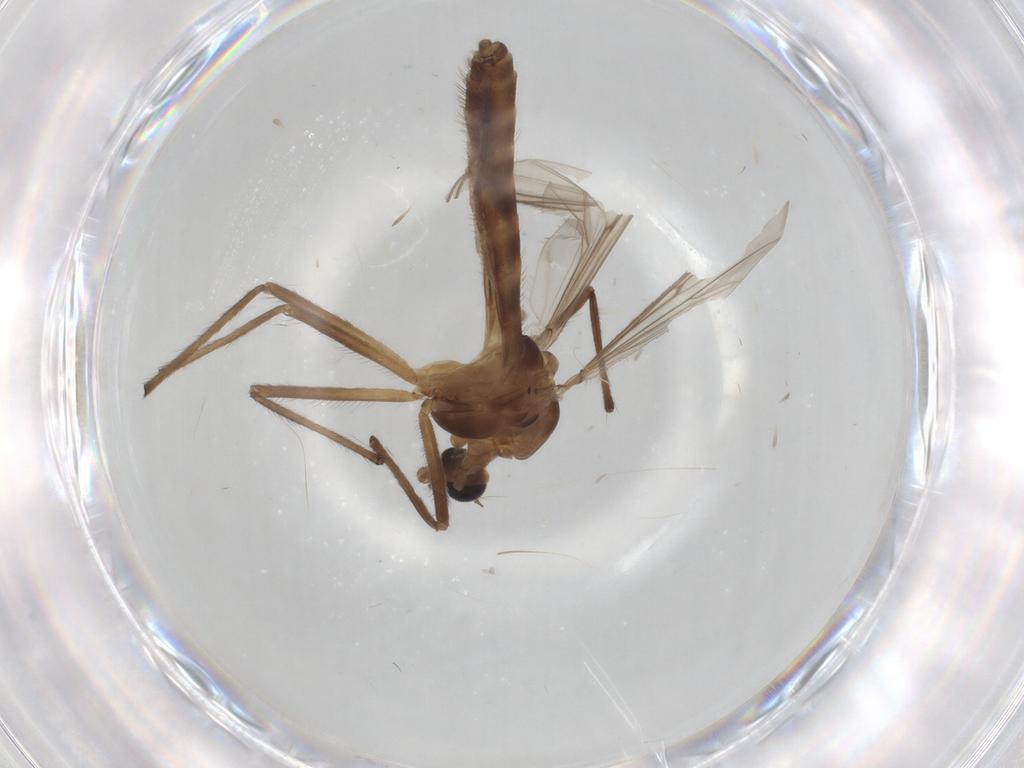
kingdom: Animalia
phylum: Arthropoda
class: Insecta
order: Diptera
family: Chironomidae
